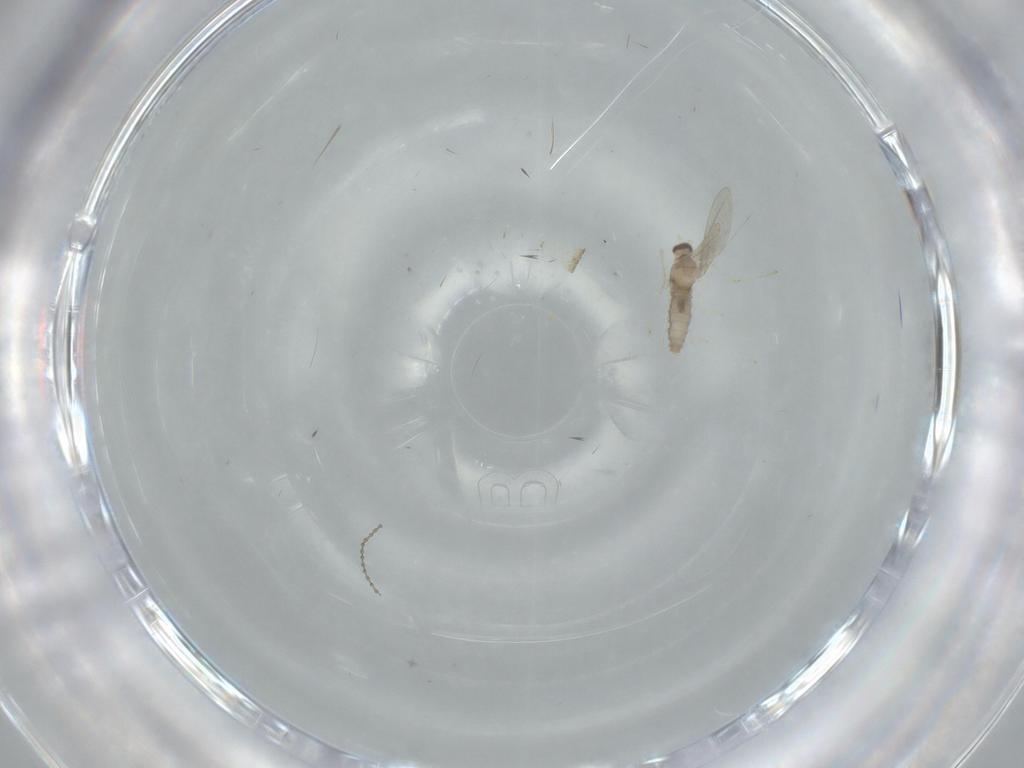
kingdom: Animalia
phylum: Arthropoda
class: Insecta
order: Diptera
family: Cecidomyiidae
